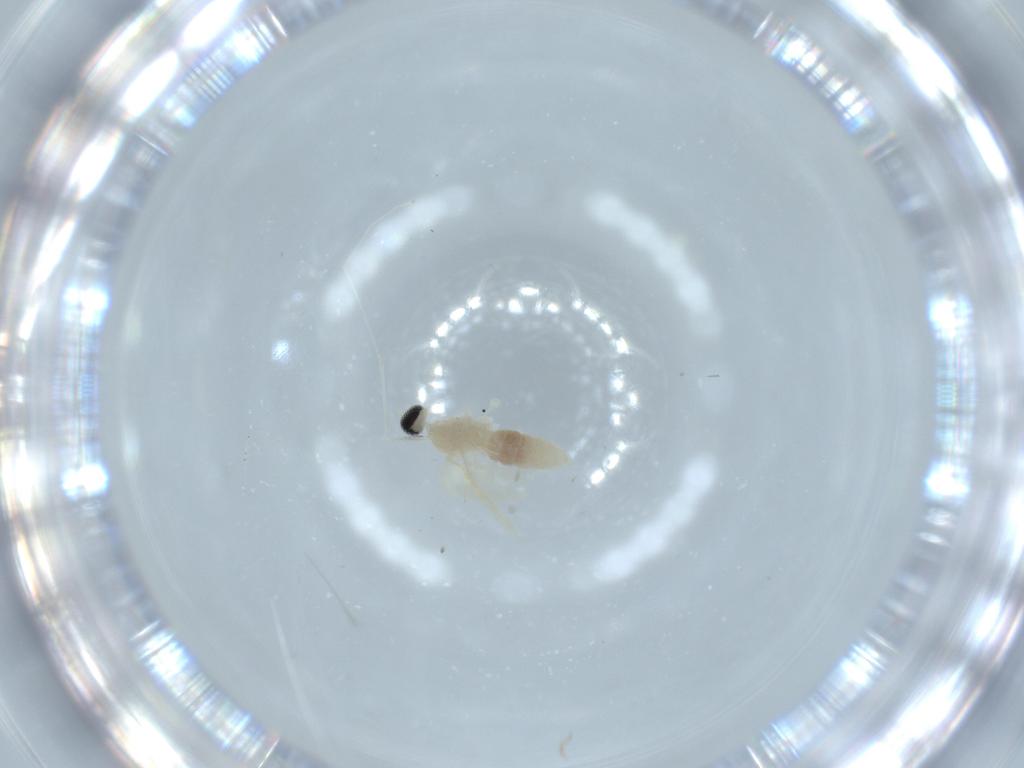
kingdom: Animalia
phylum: Arthropoda
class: Insecta
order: Diptera
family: Cecidomyiidae
